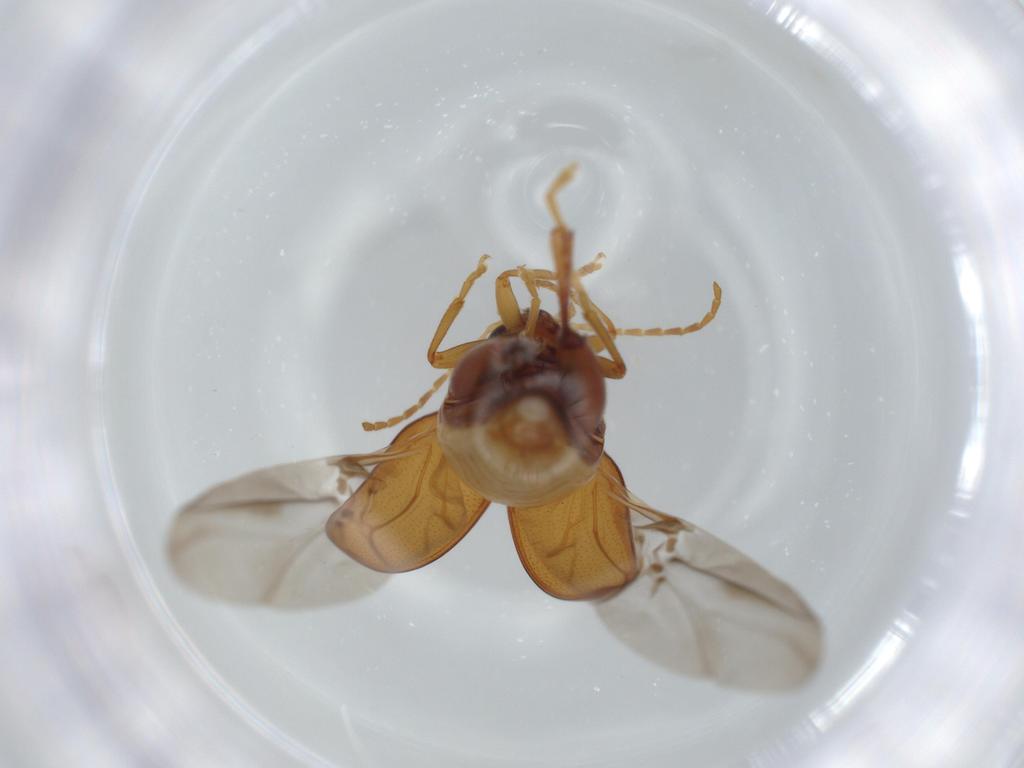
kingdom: Animalia
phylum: Arthropoda
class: Insecta
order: Coleoptera
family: Chrysomelidae
